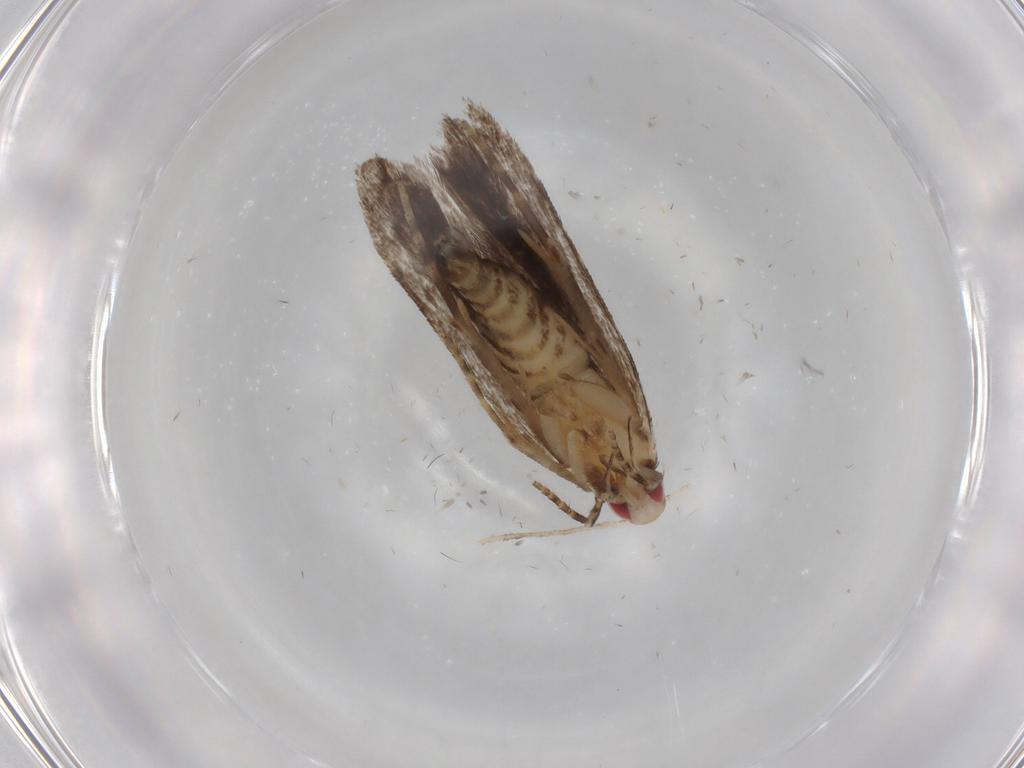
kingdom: Animalia
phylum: Arthropoda
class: Insecta
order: Lepidoptera
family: Gelechiidae
